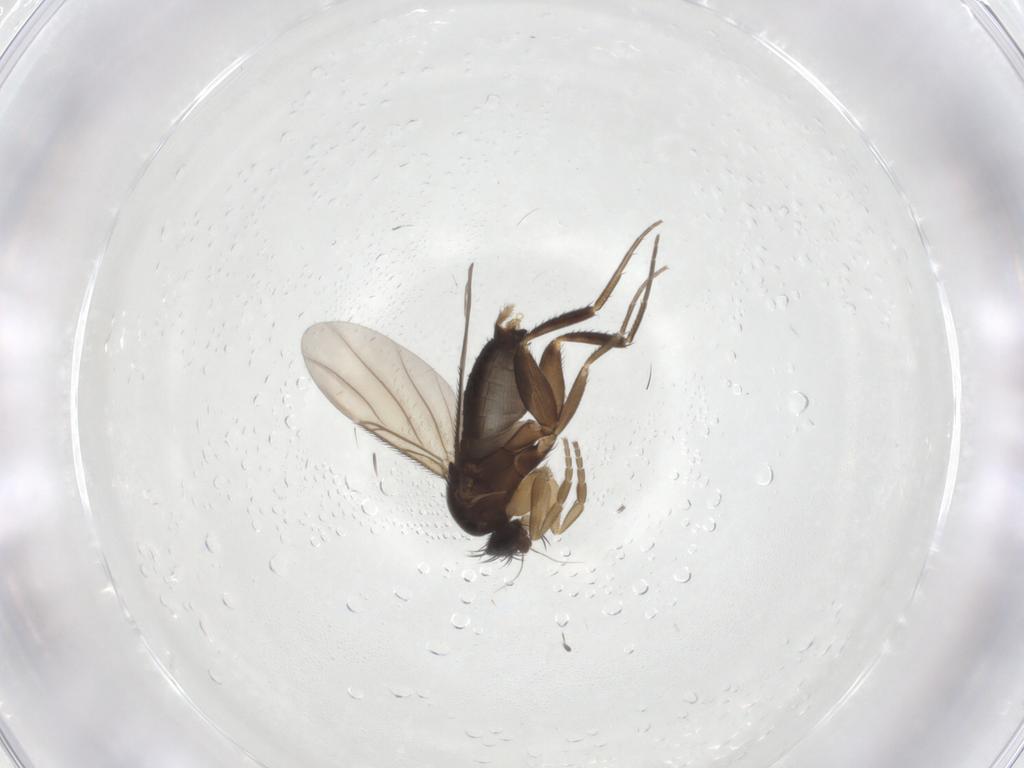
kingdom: Animalia
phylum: Arthropoda
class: Insecta
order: Diptera
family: Phoridae
